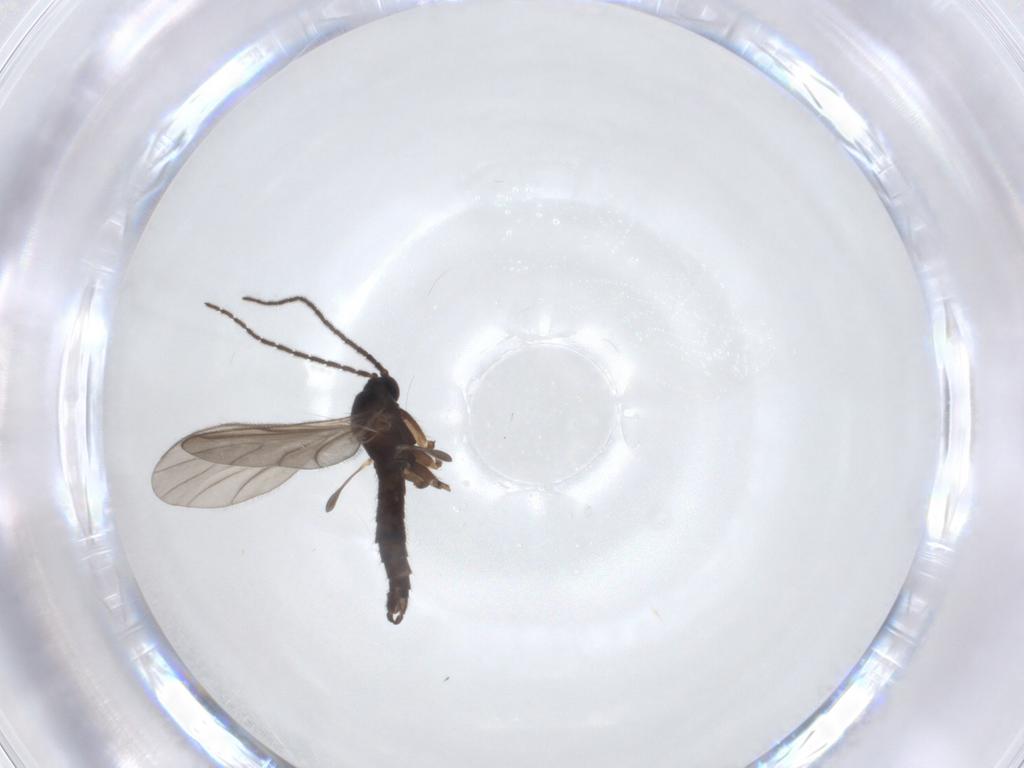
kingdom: Animalia
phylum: Arthropoda
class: Insecta
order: Diptera
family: Sciaridae
